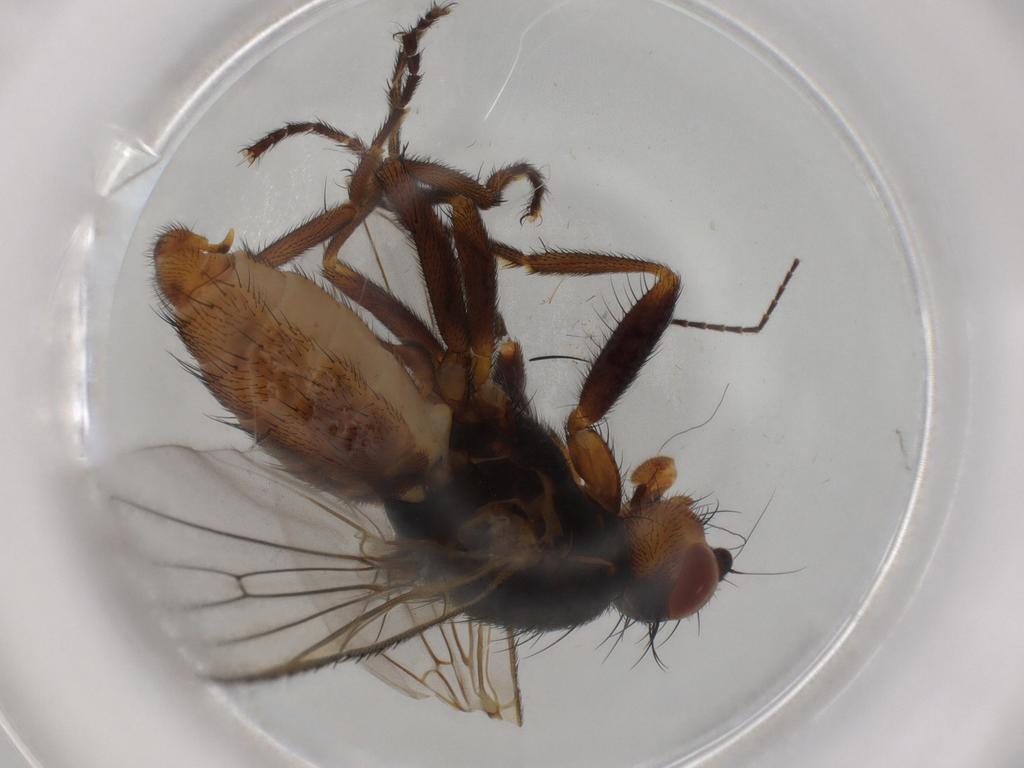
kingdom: Animalia
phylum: Arthropoda
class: Insecta
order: Diptera
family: Heleomyzidae
